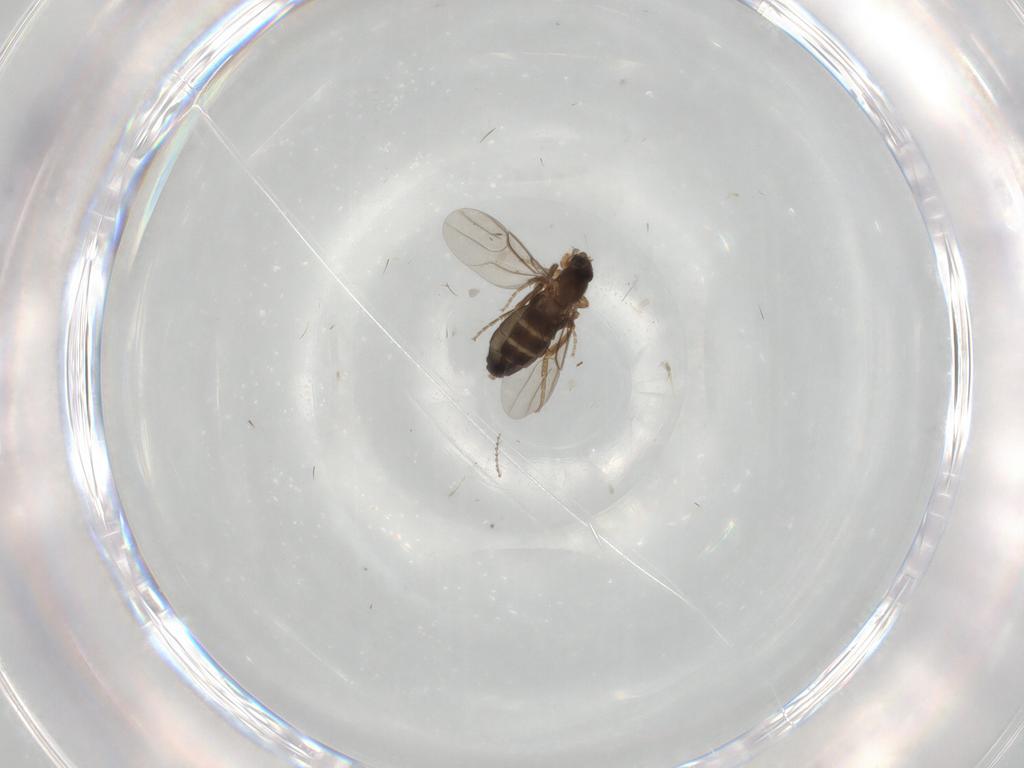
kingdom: Animalia
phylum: Arthropoda
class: Insecta
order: Diptera
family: Phoridae
